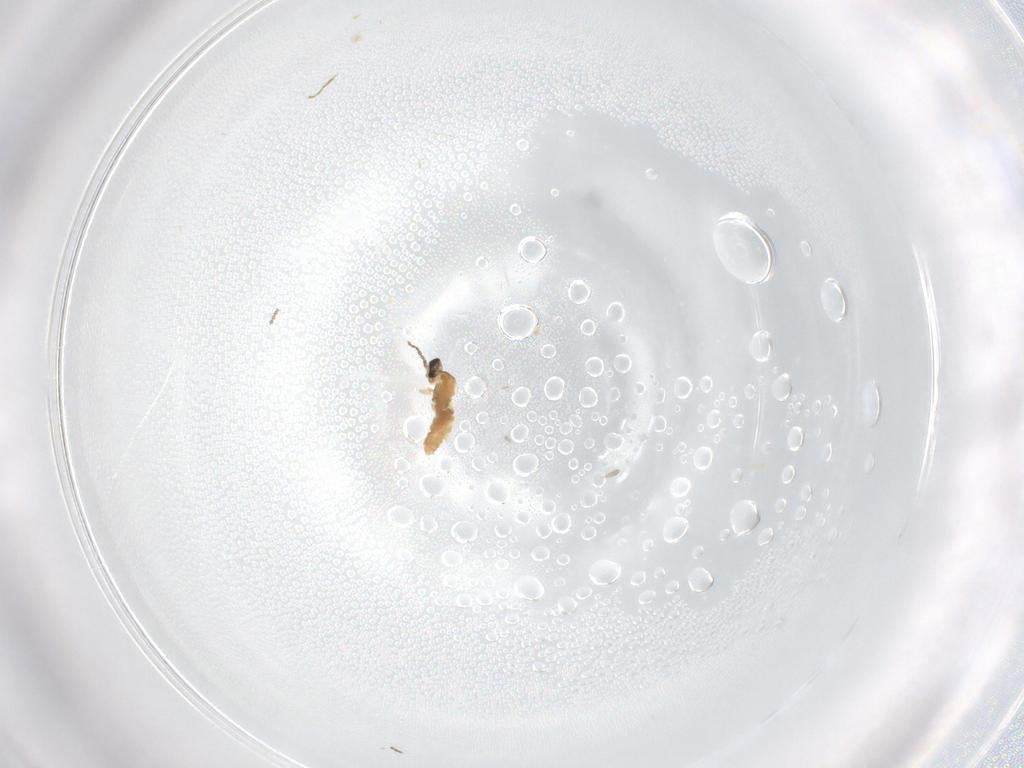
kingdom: Animalia
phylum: Arthropoda
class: Insecta
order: Diptera
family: Cecidomyiidae
